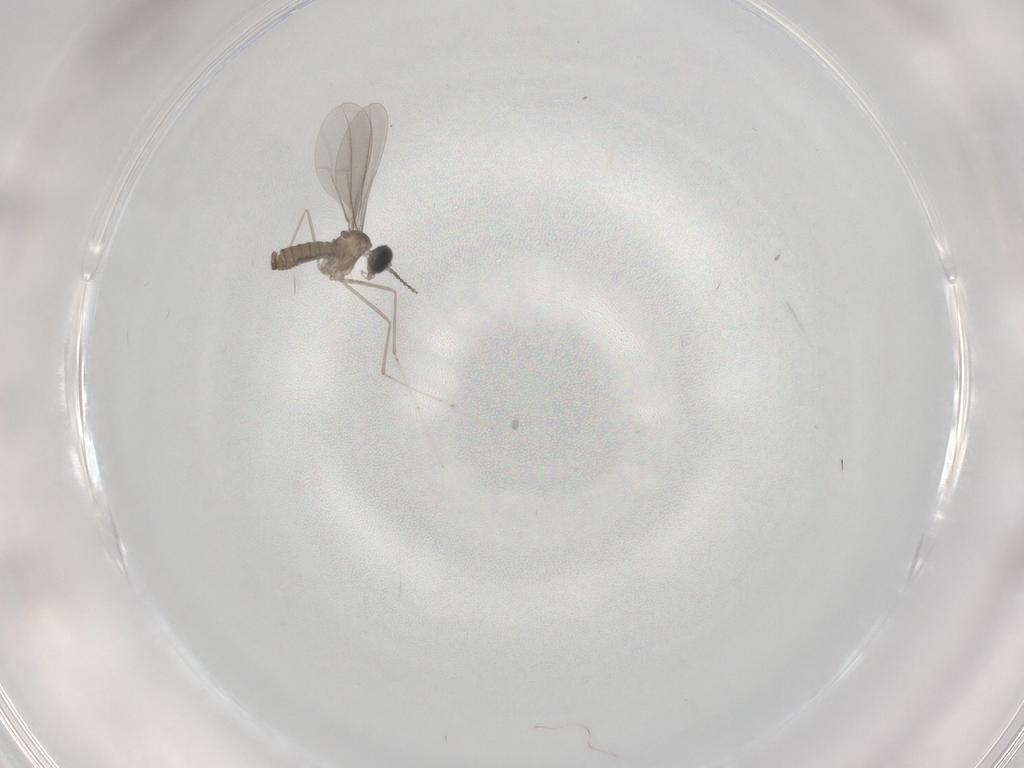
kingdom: Animalia
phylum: Arthropoda
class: Insecta
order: Diptera
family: Cecidomyiidae
